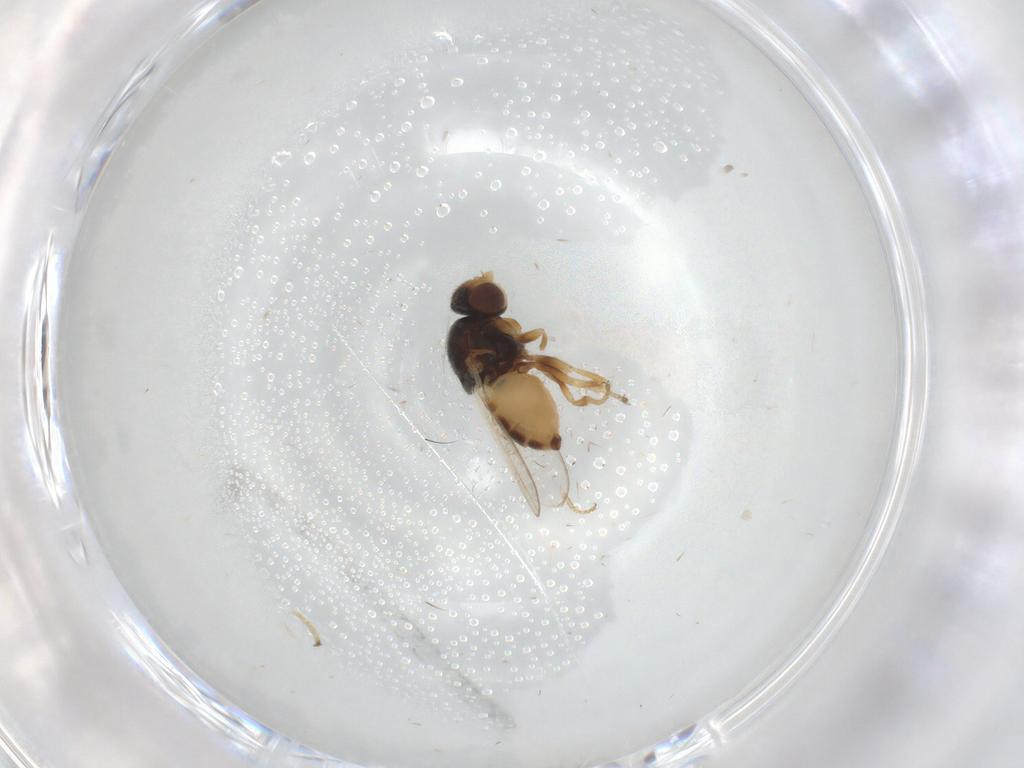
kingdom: Animalia
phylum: Arthropoda
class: Insecta
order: Diptera
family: Chloropidae
